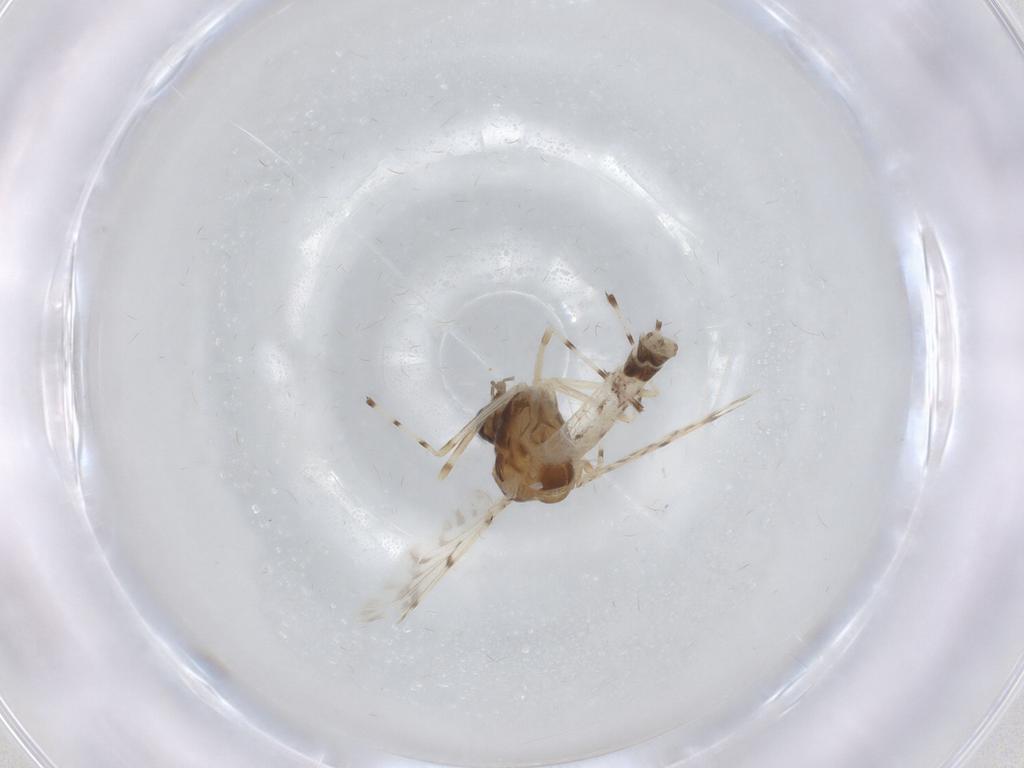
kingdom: Animalia
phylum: Arthropoda
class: Insecta
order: Diptera
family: Chironomidae
